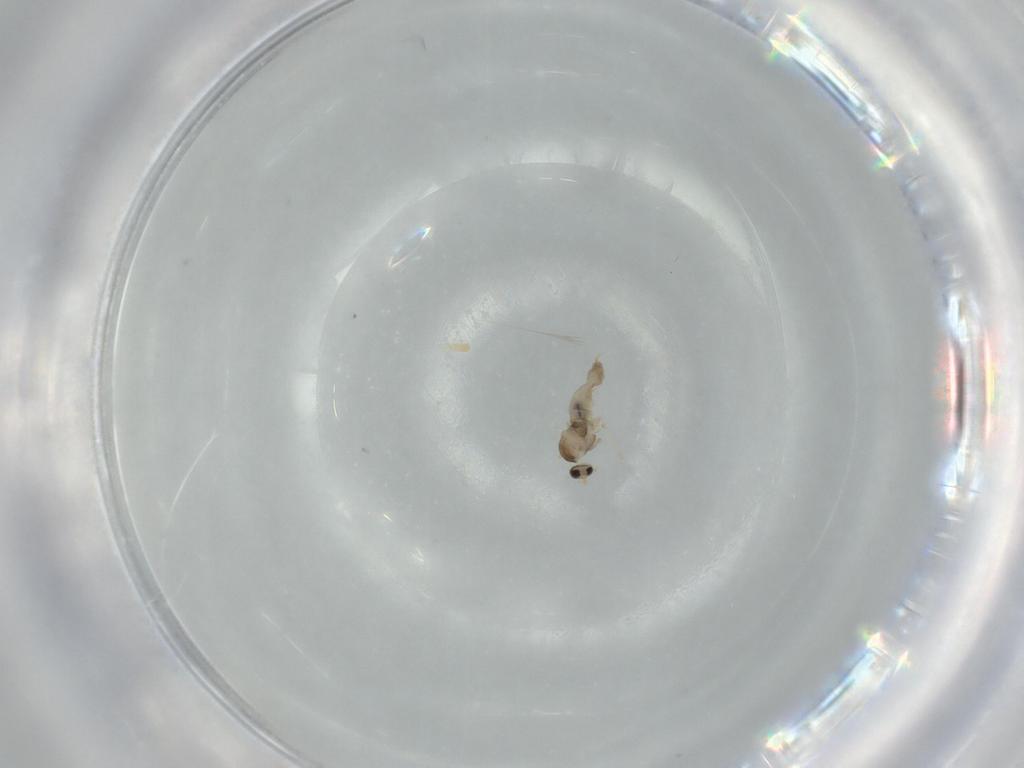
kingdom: Animalia
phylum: Arthropoda
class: Insecta
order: Diptera
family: Cecidomyiidae
